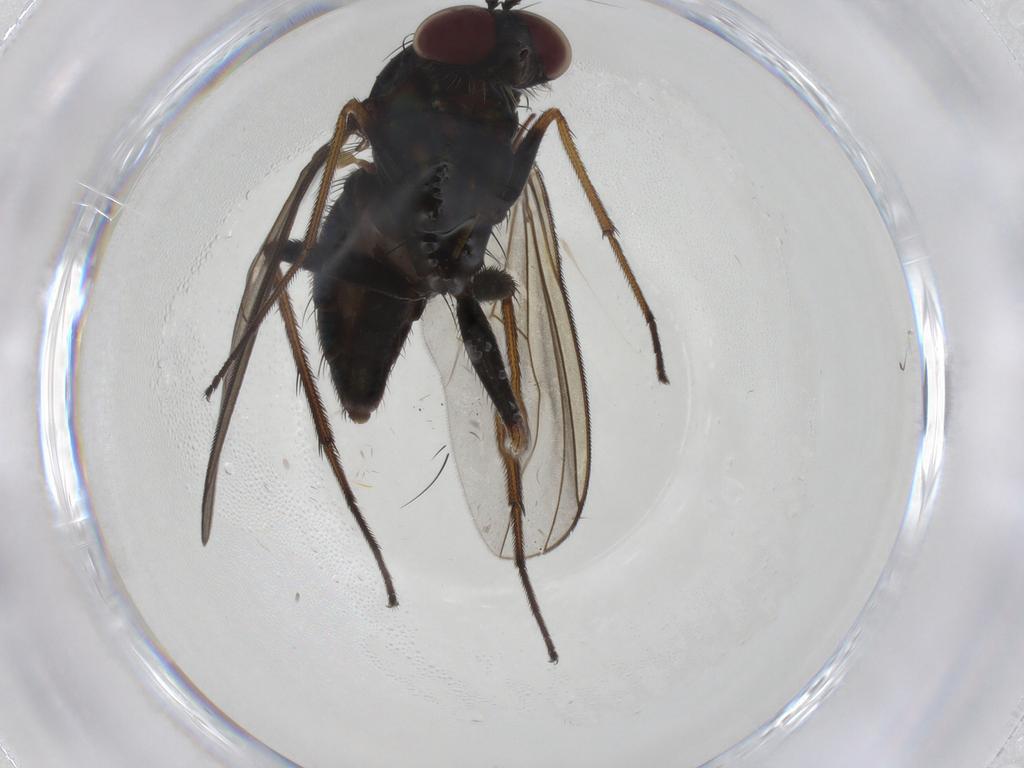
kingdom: Animalia
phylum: Arthropoda
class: Insecta
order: Diptera
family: Dolichopodidae
